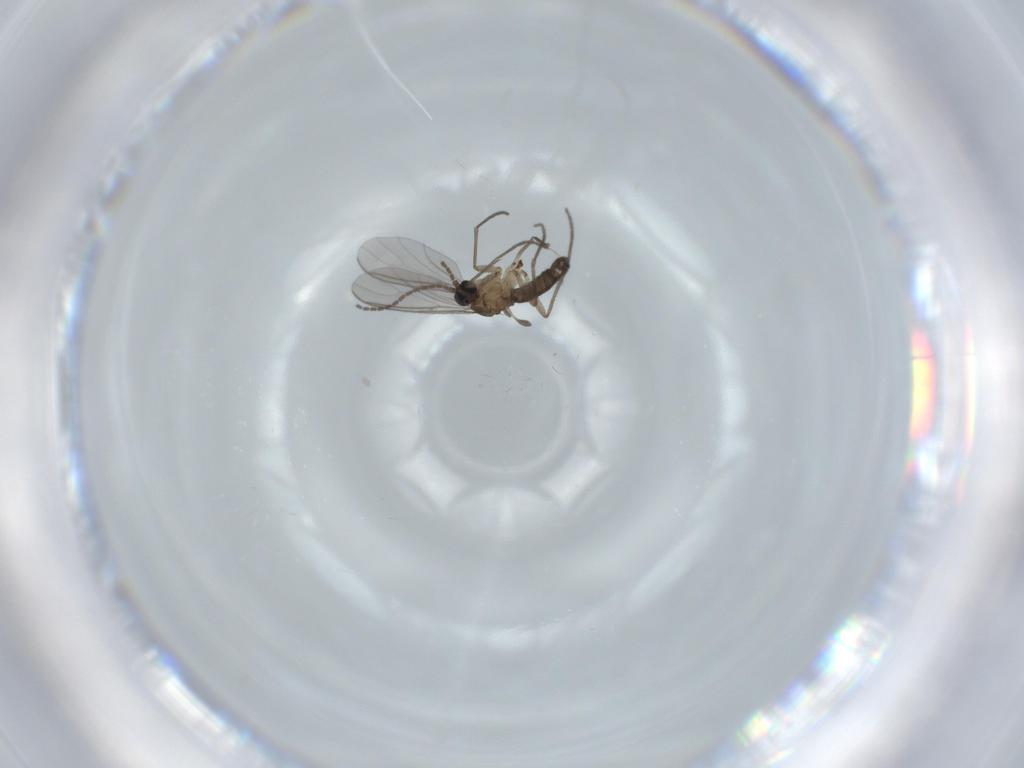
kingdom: Animalia
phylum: Arthropoda
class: Insecta
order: Diptera
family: Sciaridae
